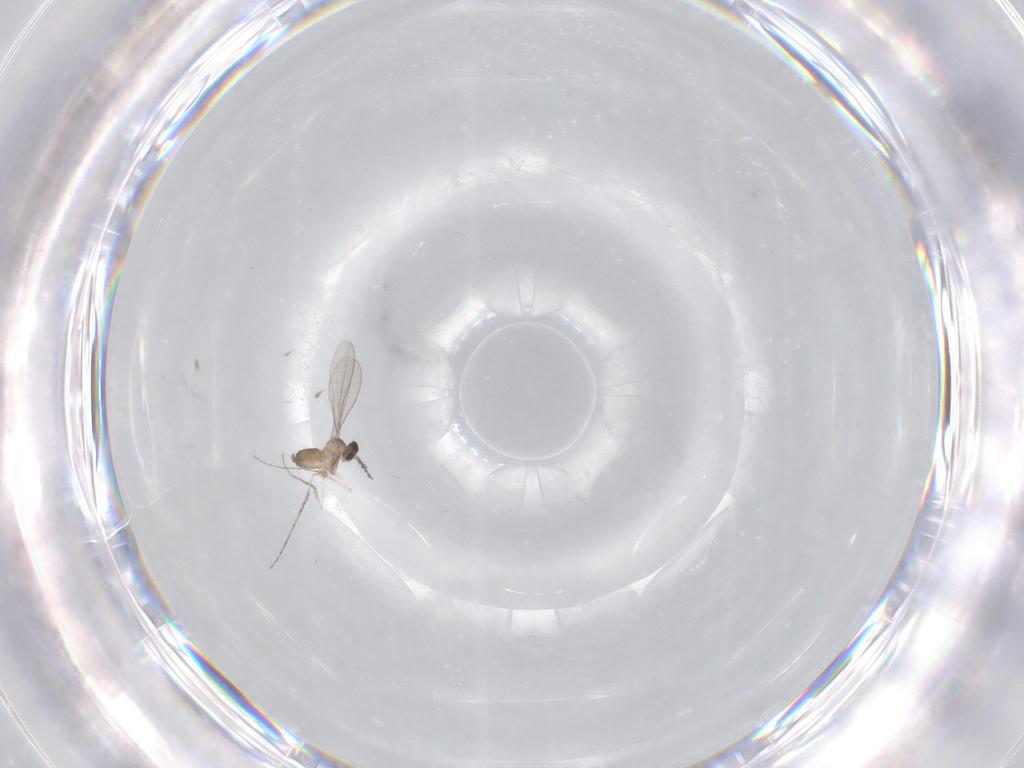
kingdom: Animalia
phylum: Arthropoda
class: Insecta
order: Diptera
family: Cecidomyiidae
